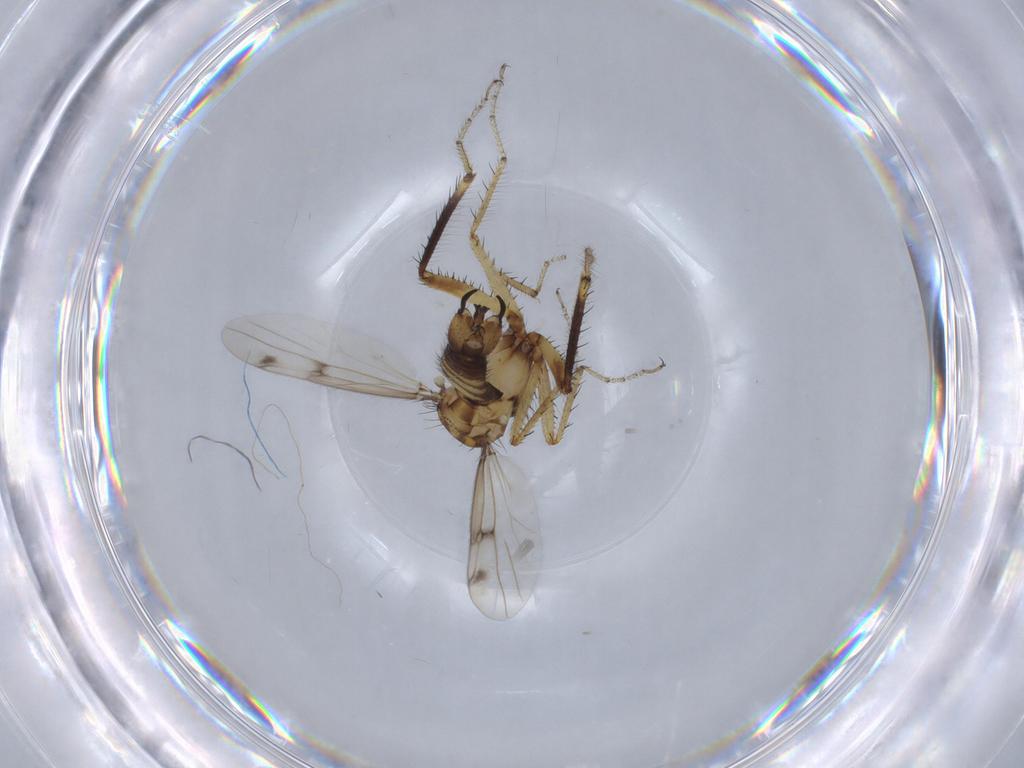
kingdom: Animalia
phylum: Arthropoda
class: Insecta
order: Diptera
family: Ceratopogonidae
